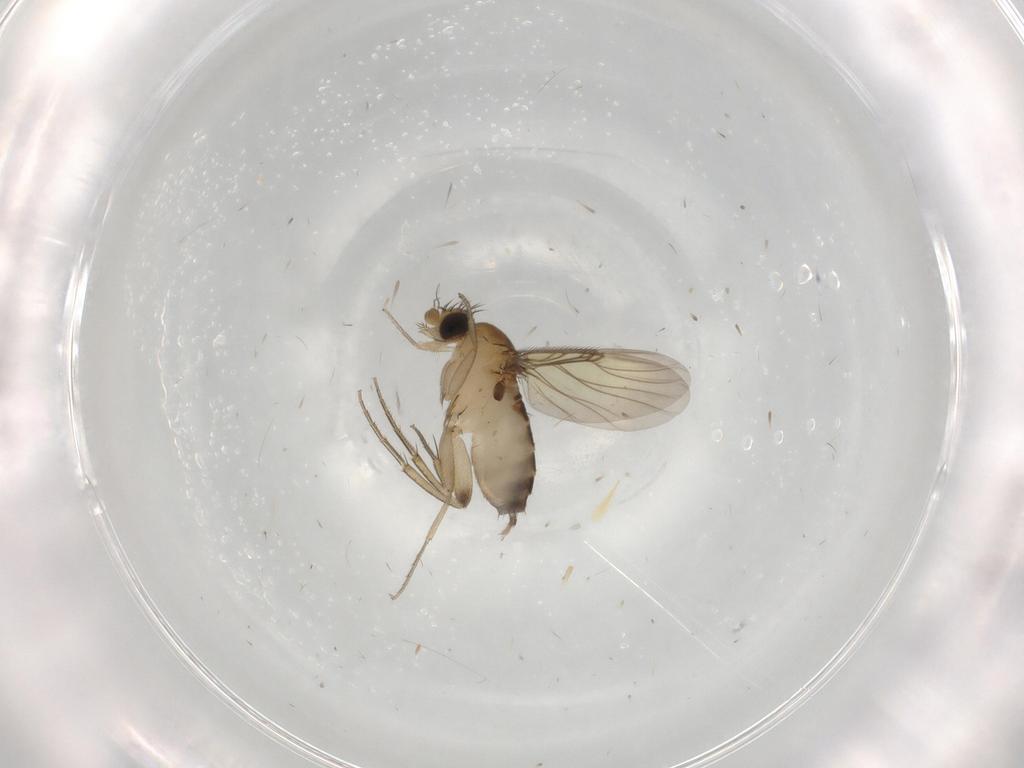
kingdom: Animalia
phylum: Arthropoda
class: Insecta
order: Diptera
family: Phoridae
